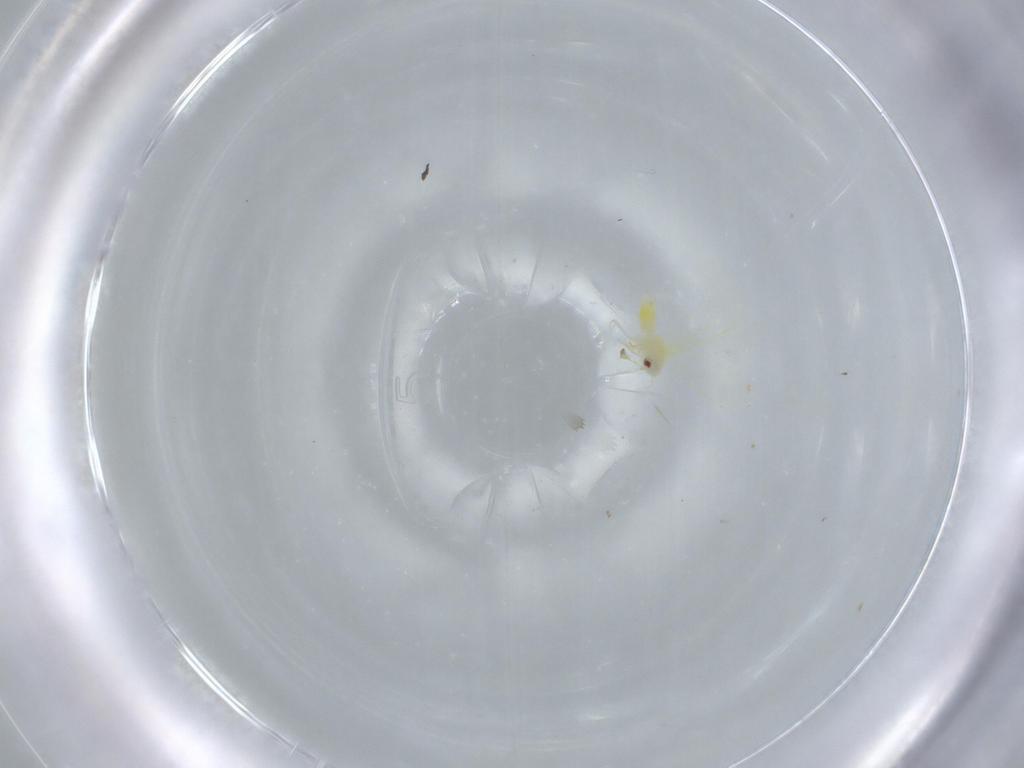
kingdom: Animalia
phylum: Arthropoda
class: Insecta
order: Hemiptera
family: Aleyrodidae
